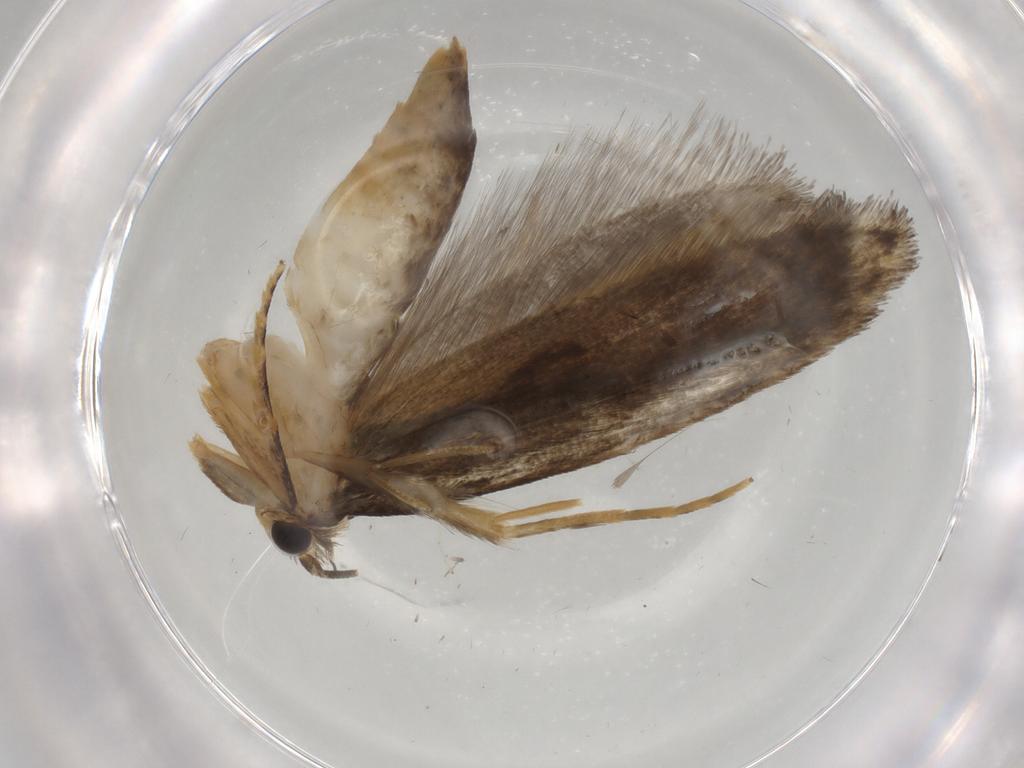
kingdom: Animalia
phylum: Arthropoda
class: Insecta
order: Lepidoptera
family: Tineidae
